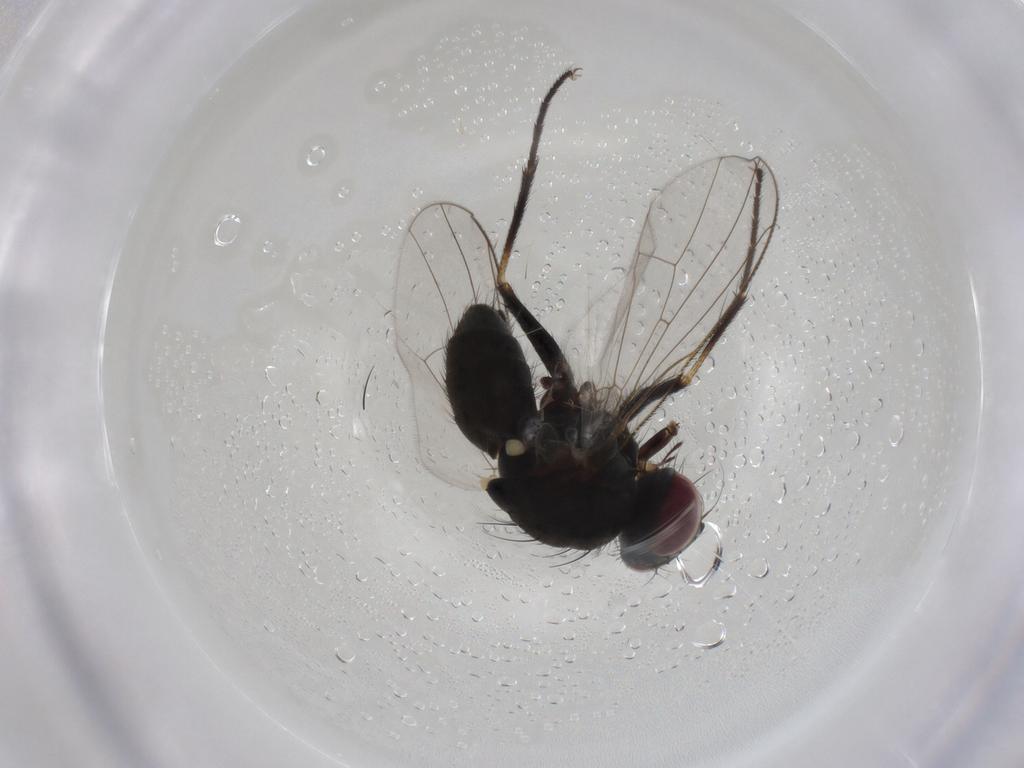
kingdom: Animalia
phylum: Arthropoda
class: Insecta
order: Diptera
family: Muscidae
